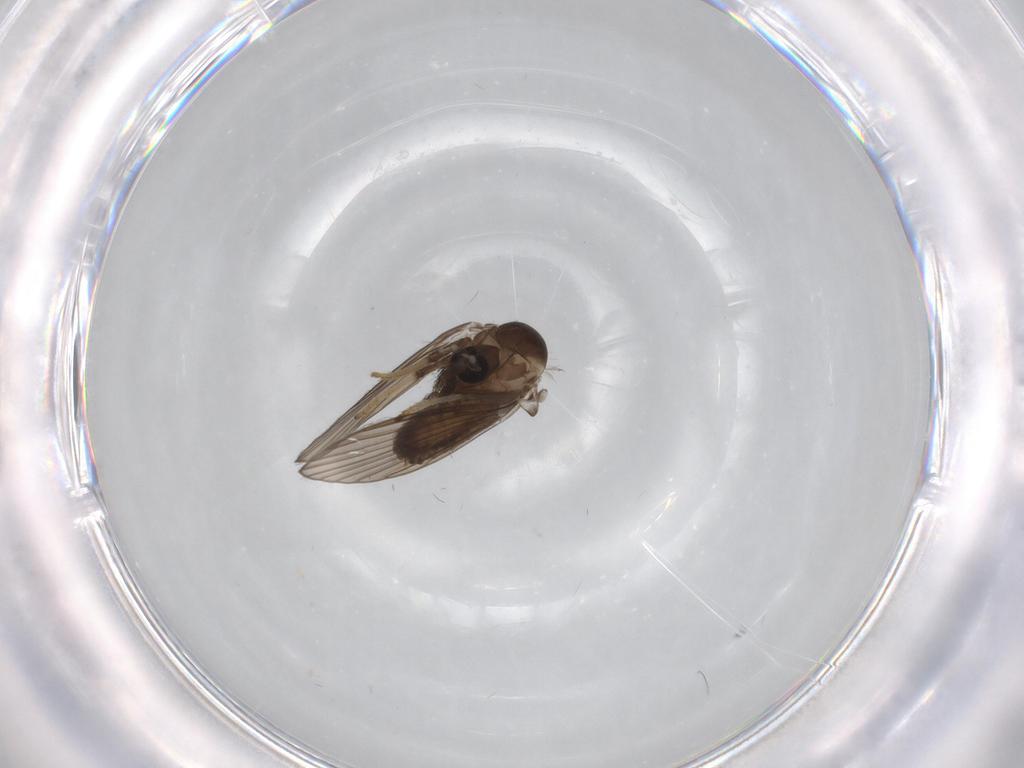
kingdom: Animalia
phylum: Arthropoda
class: Insecta
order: Diptera
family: Psychodidae
